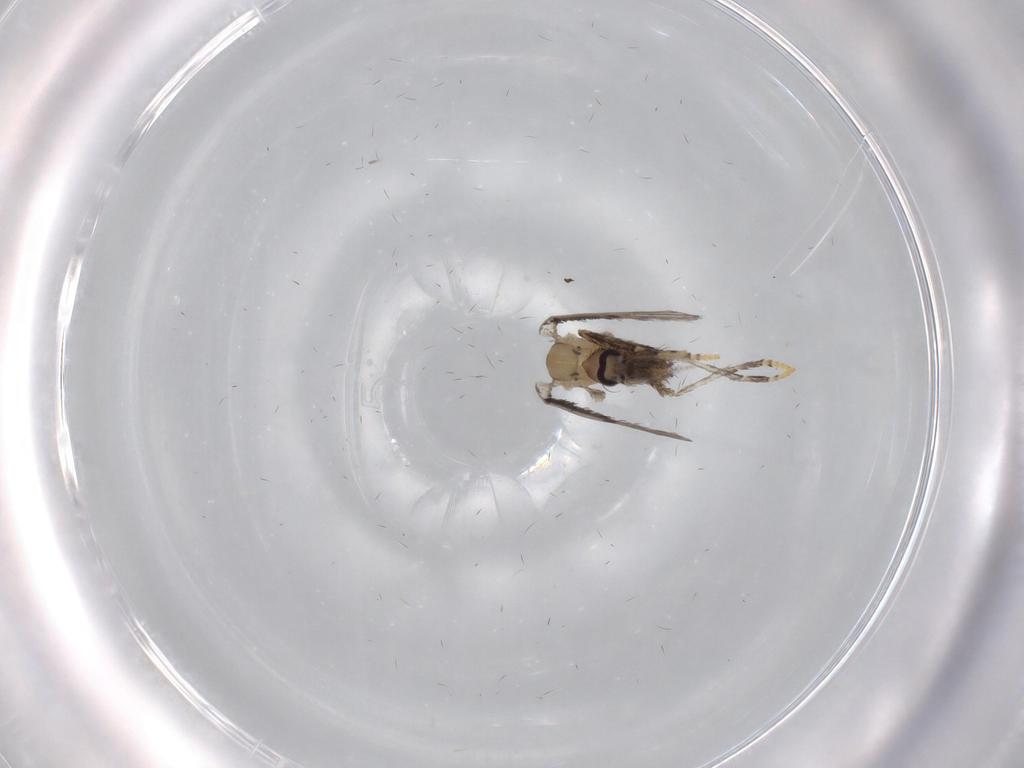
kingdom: Animalia
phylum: Arthropoda
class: Insecta
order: Diptera
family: Psychodidae
